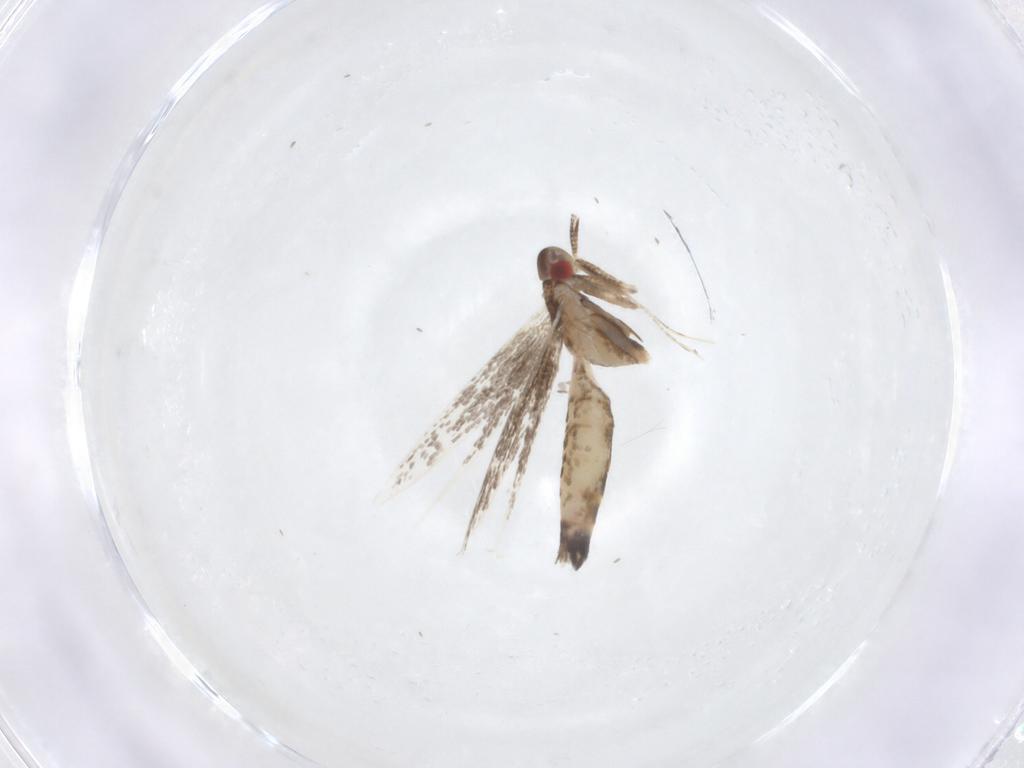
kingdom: Animalia
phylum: Arthropoda
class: Insecta
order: Lepidoptera
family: Cosmopterigidae
